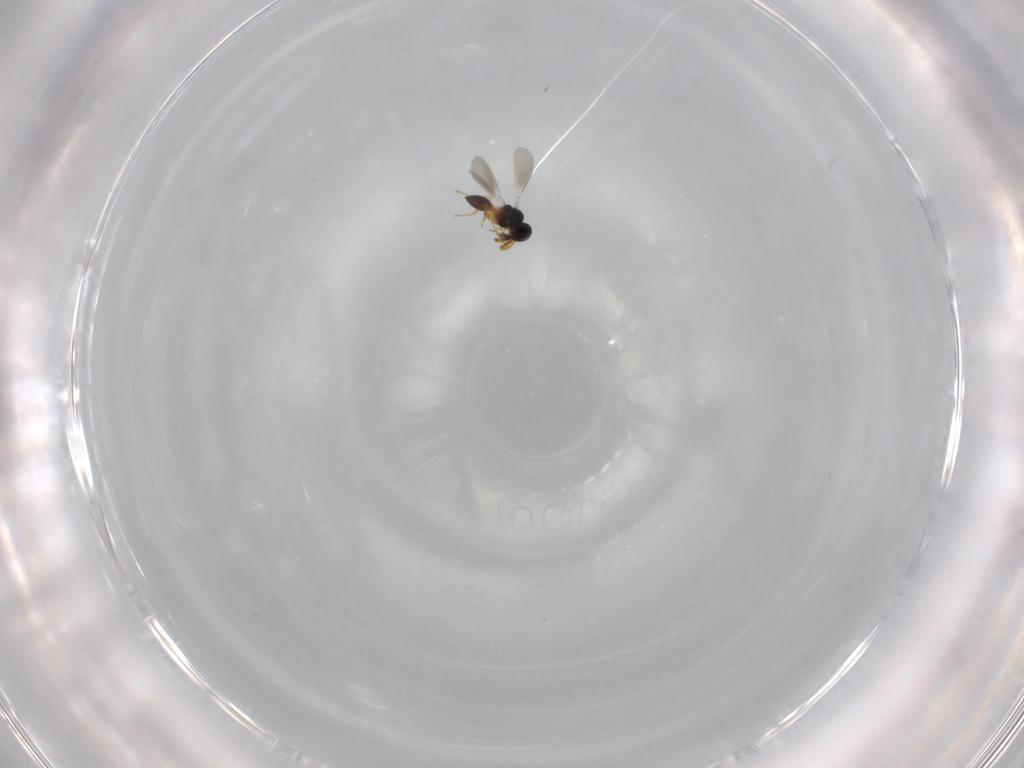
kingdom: Animalia
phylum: Arthropoda
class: Insecta
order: Hymenoptera
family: Platygastridae
